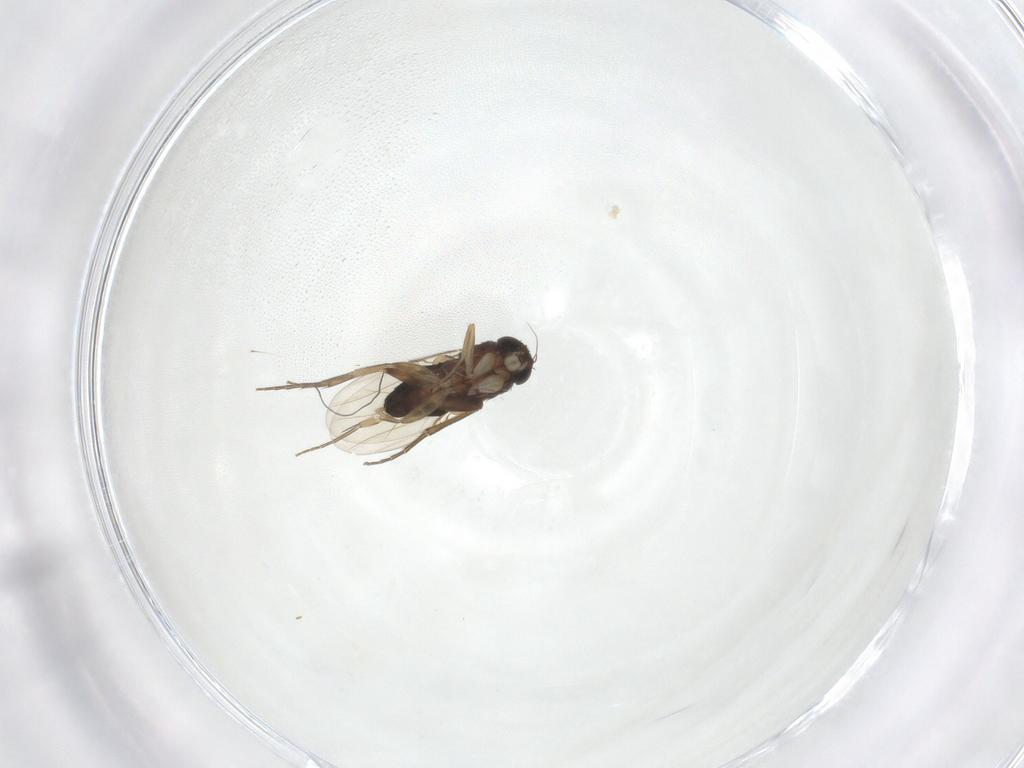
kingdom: Animalia
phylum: Arthropoda
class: Insecta
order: Diptera
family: Phoridae
